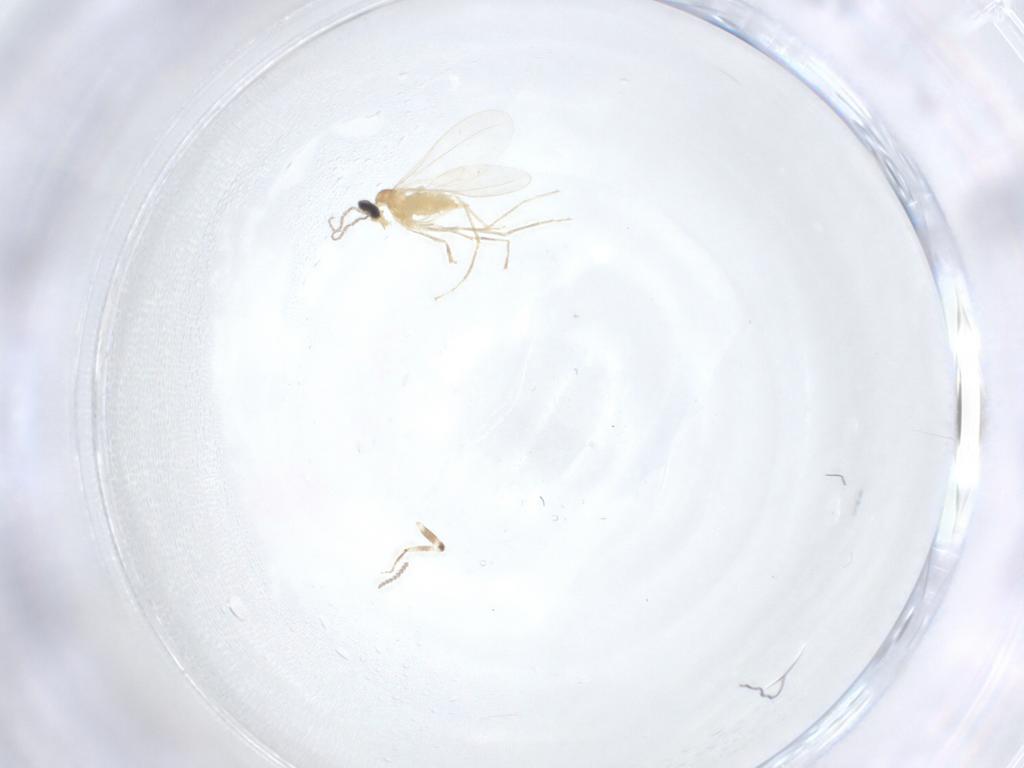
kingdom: Animalia
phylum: Arthropoda
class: Insecta
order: Diptera
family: Cecidomyiidae
